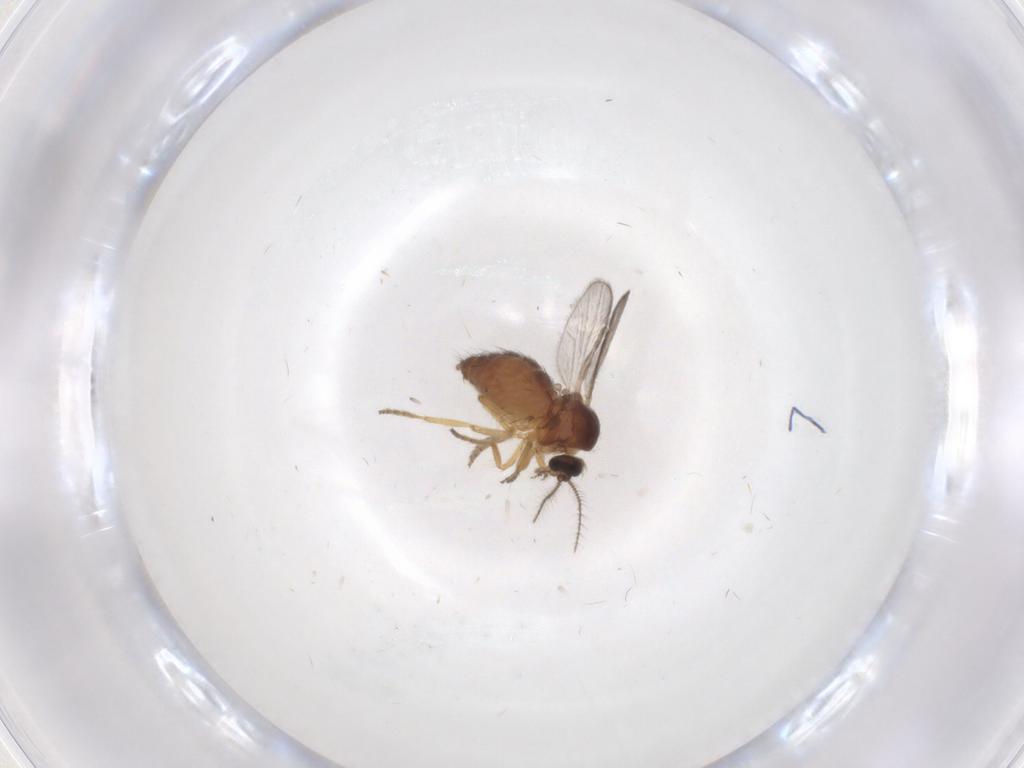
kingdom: Animalia
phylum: Arthropoda
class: Insecta
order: Diptera
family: Ceratopogonidae
